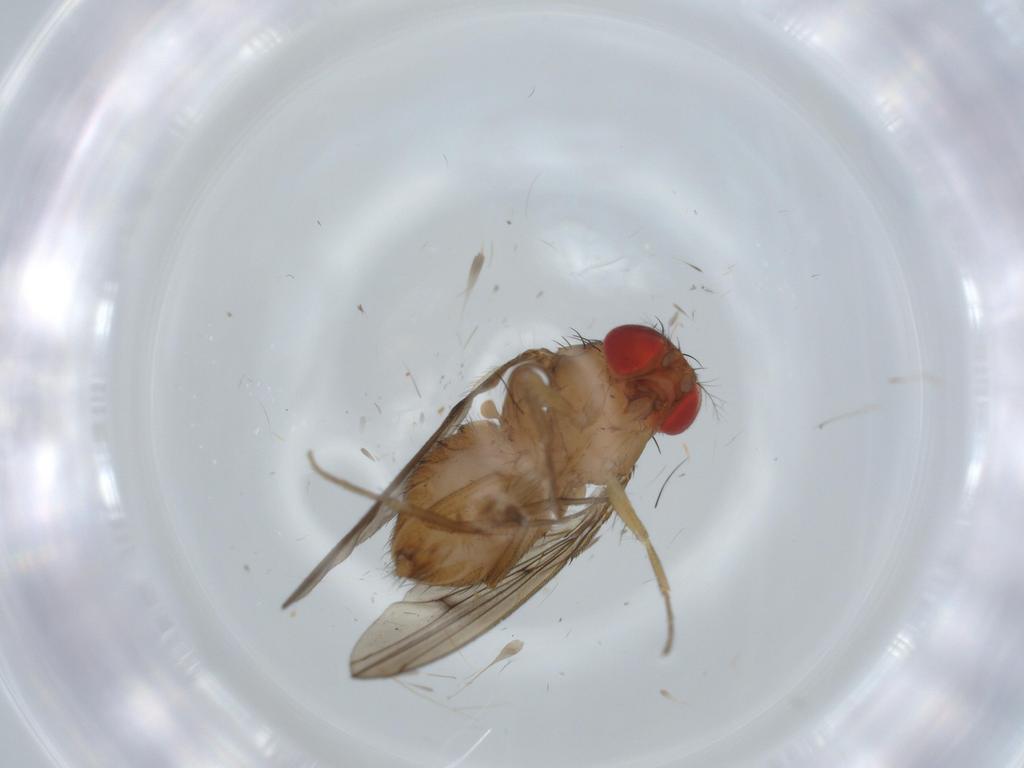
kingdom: Animalia
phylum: Arthropoda
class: Insecta
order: Diptera
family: Drosophilidae
